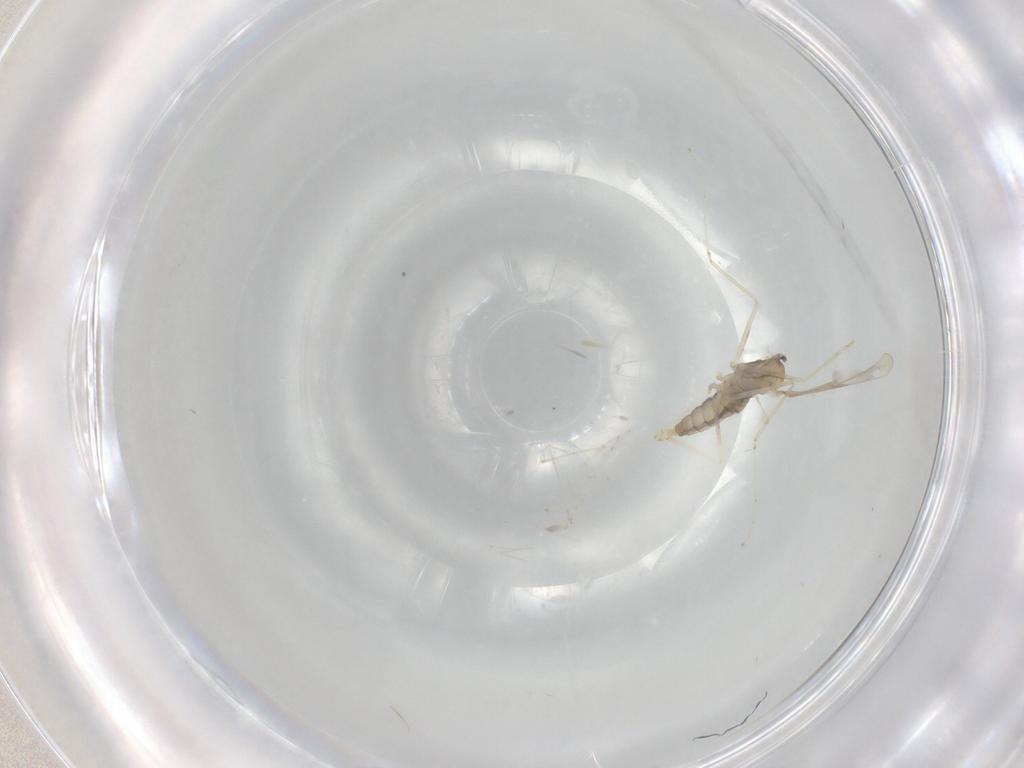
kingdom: Animalia
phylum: Arthropoda
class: Insecta
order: Diptera
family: Cecidomyiidae
